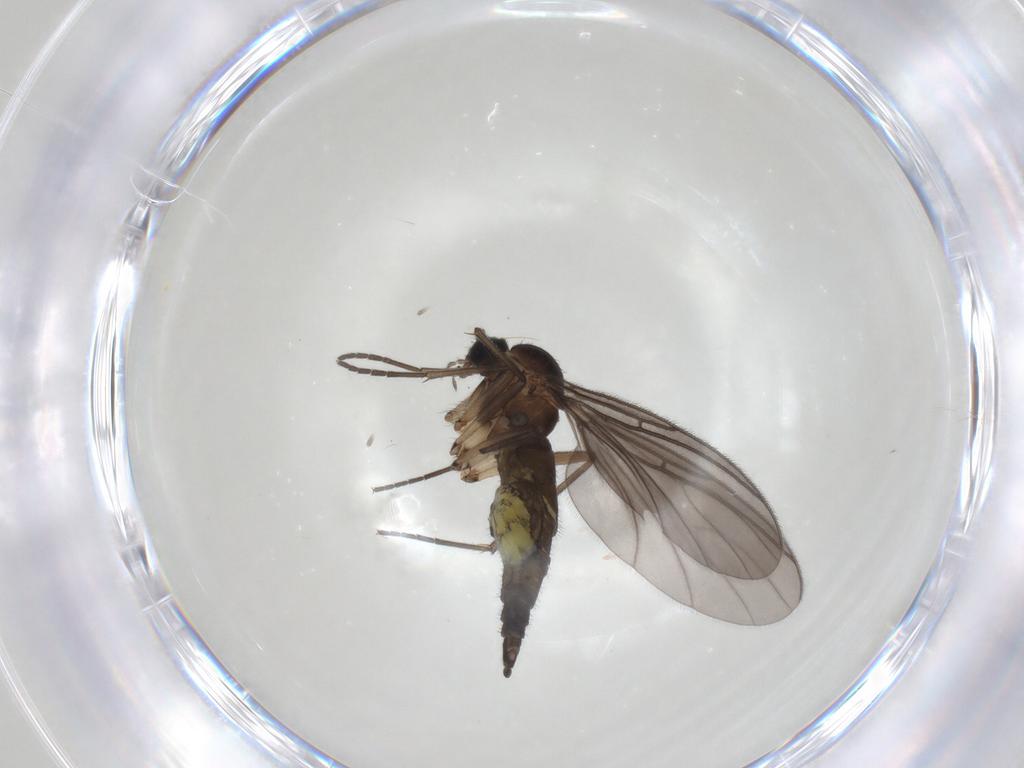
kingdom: Animalia
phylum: Arthropoda
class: Insecta
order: Diptera
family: Sciaridae
